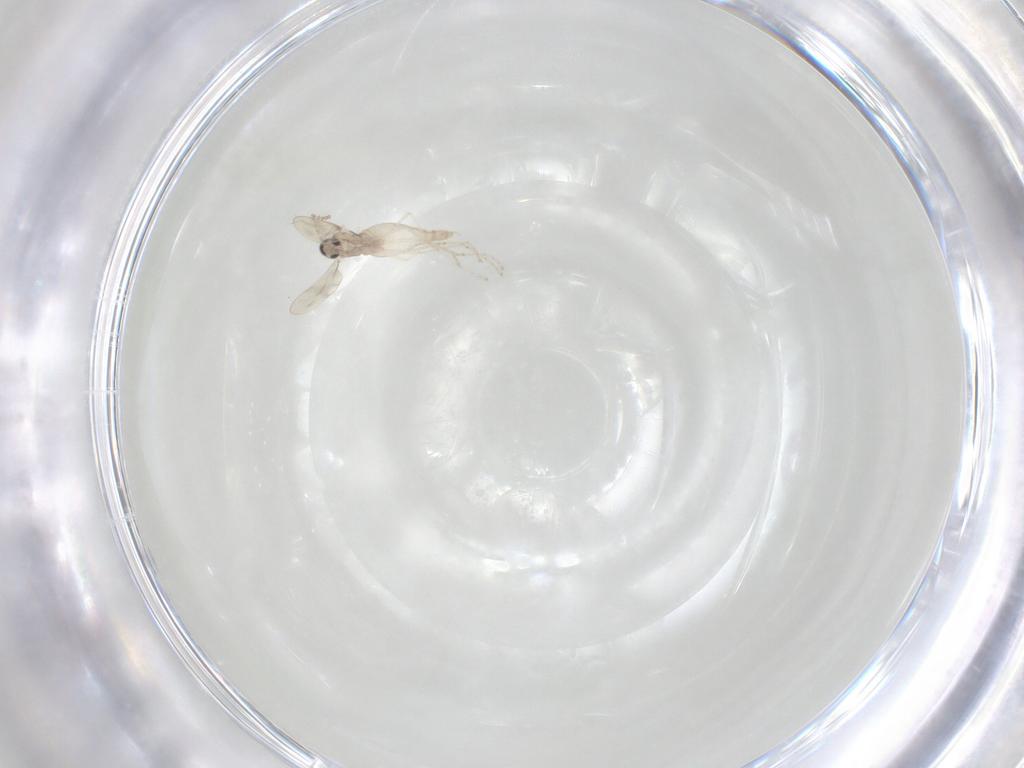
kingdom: Animalia
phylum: Arthropoda
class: Insecta
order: Diptera
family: Cecidomyiidae
